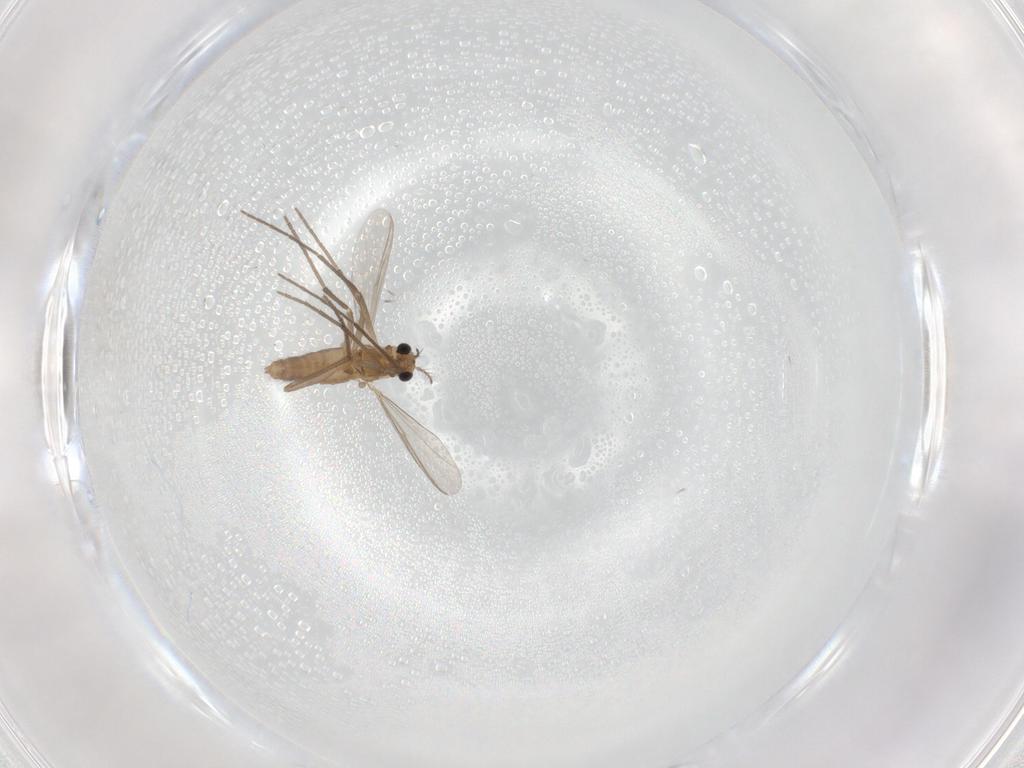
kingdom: Animalia
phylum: Arthropoda
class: Insecta
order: Diptera
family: Chironomidae
